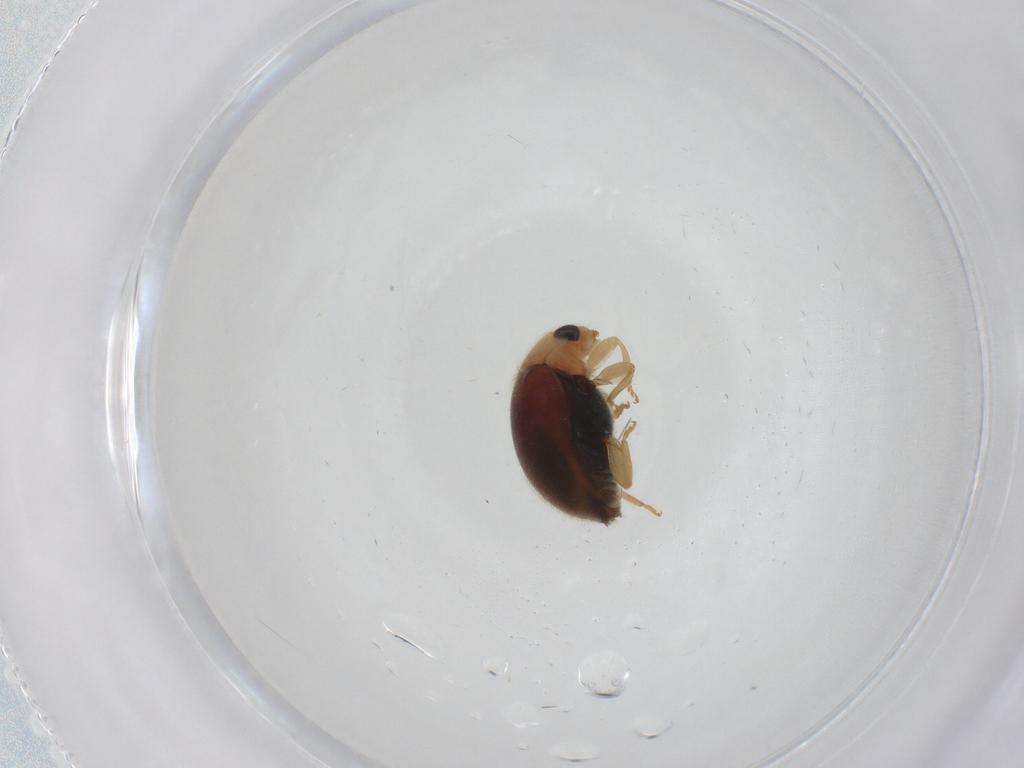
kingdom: Animalia
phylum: Arthropoda
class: Insecta
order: Coleoptera
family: Coccinellidae
